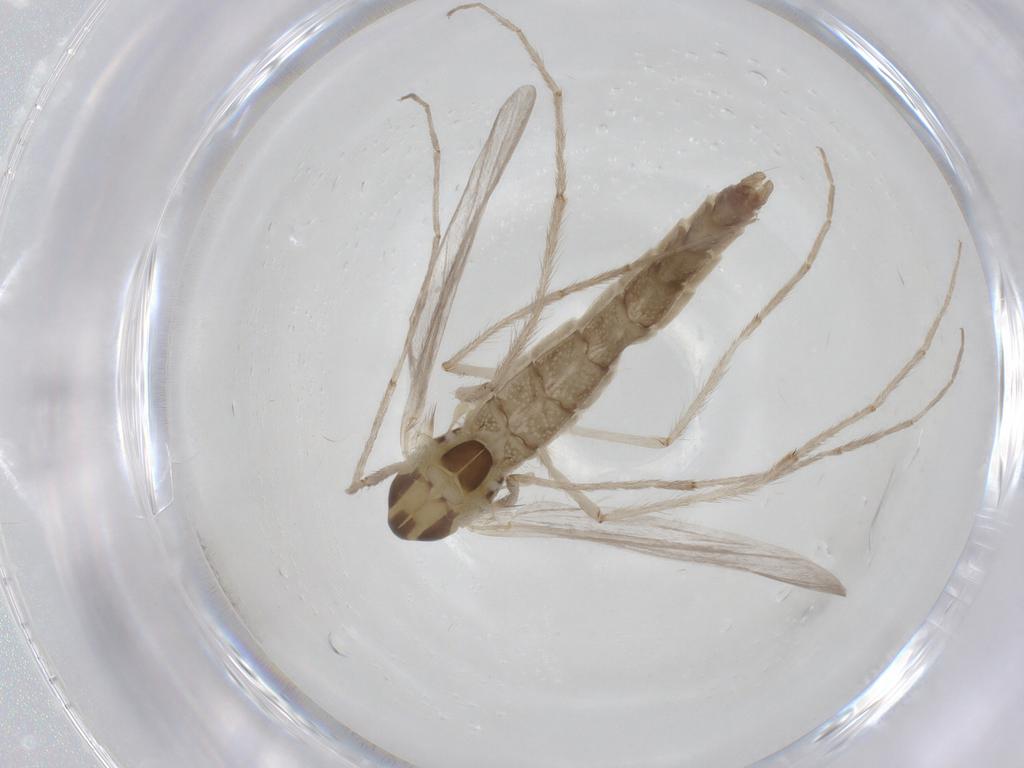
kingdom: Animalia
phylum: Arthropoda
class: Insecta
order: Diptera
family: Chironomidae
